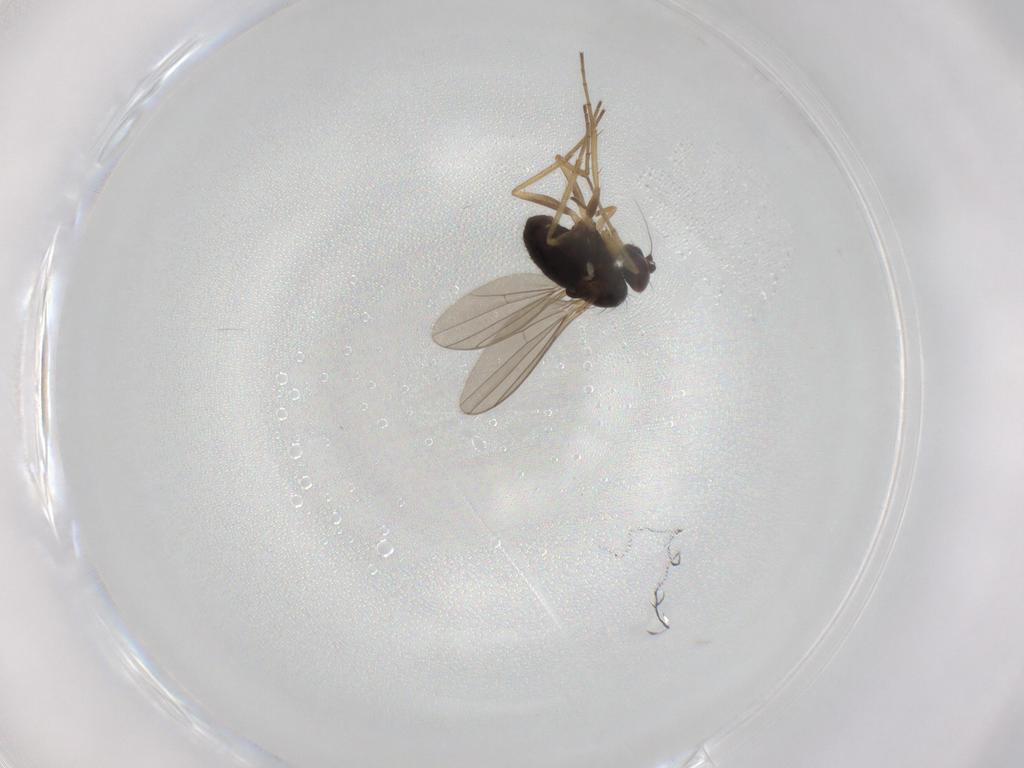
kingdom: Animalia
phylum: Arthropoda
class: Insecta
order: Diptera
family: Dolichopodidae
